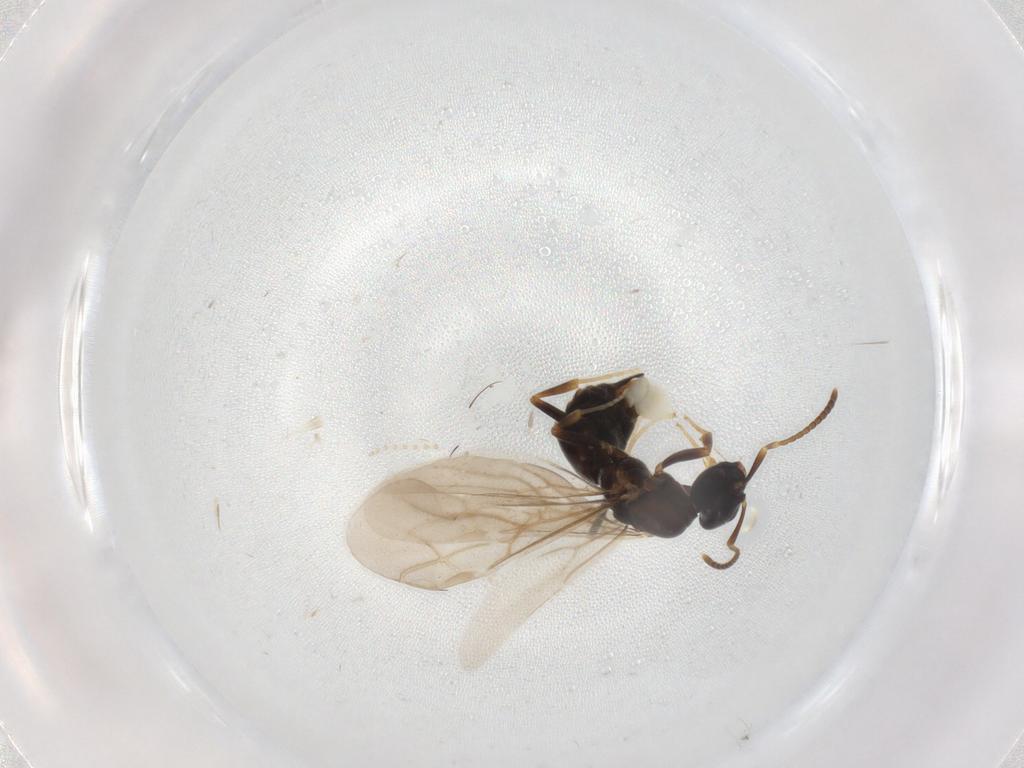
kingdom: Animalia
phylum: Arthropoda
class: Insecta
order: Hymenoptera
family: Formicidae
